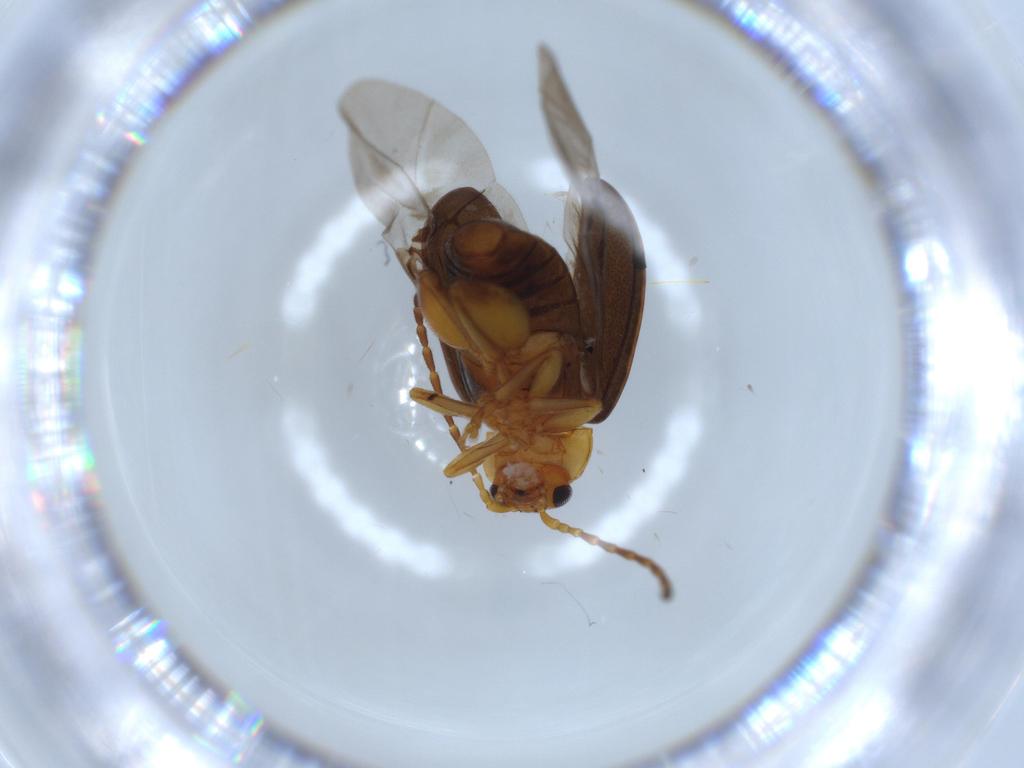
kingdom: Animalia
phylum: Arthropoda
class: Insecta
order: Coleoptera
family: Chrysomelidae
